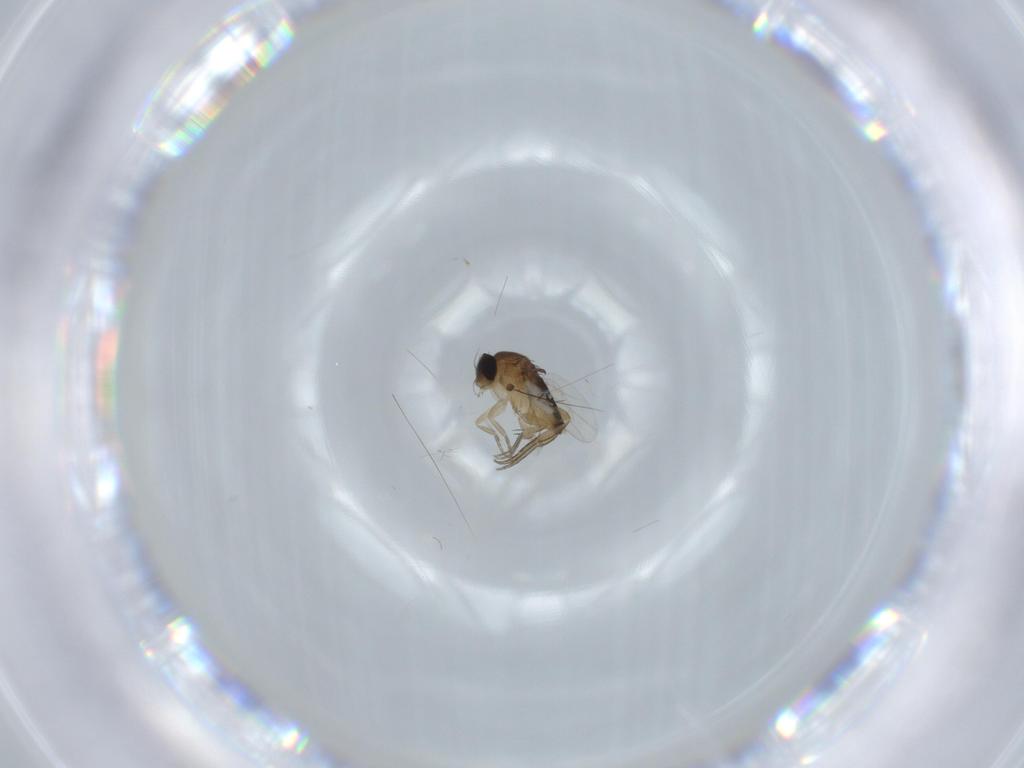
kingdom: Animalia
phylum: Arthropoda
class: Insecta
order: Diptera
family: Phoridae
